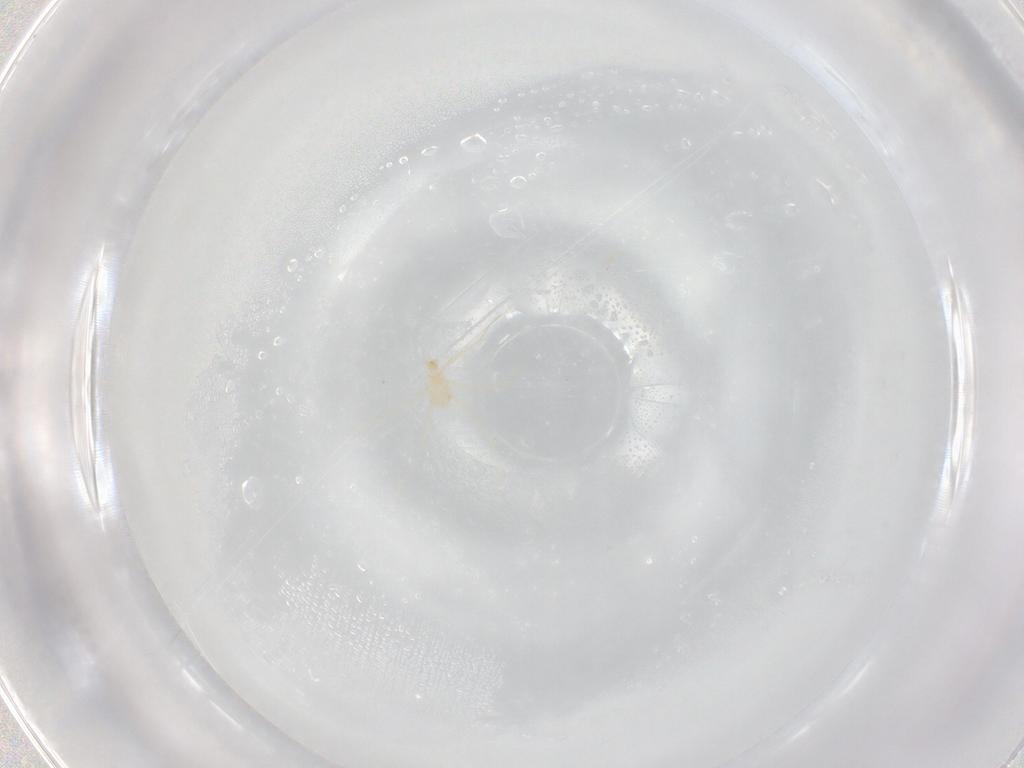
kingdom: Animalia
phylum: Arthropoda
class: Arachnida
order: Trombidiformes
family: Erythraeidae
